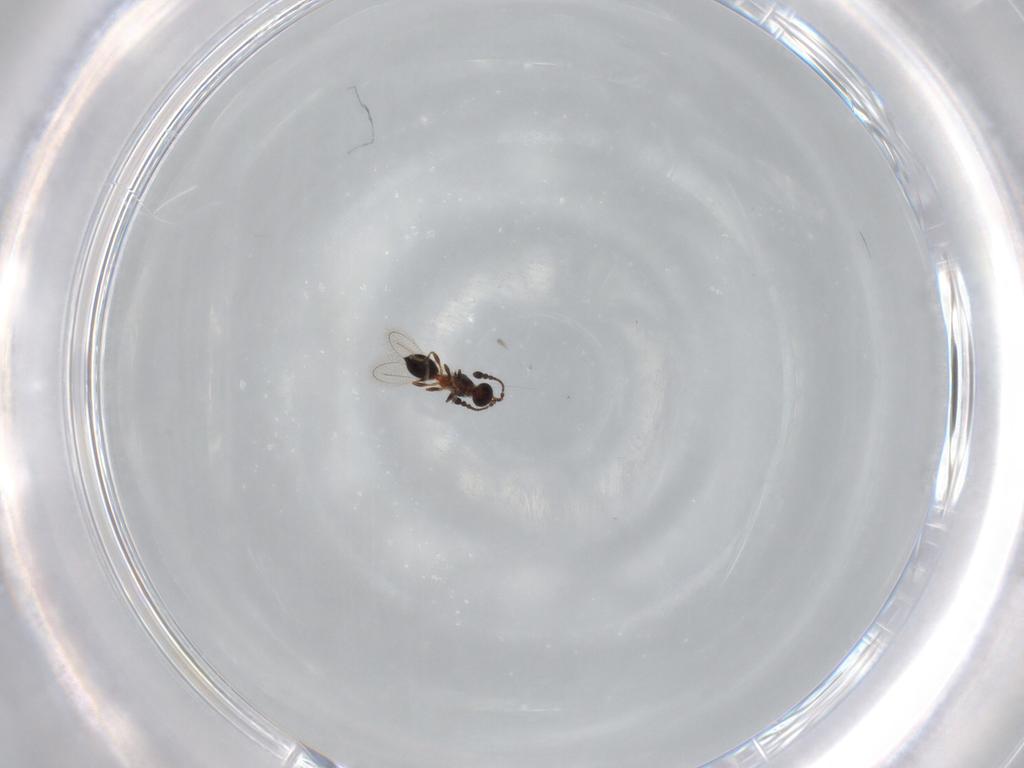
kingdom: Animalia
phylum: Arthropoda
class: Insecta
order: Hymenoptera
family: Diapriidae
